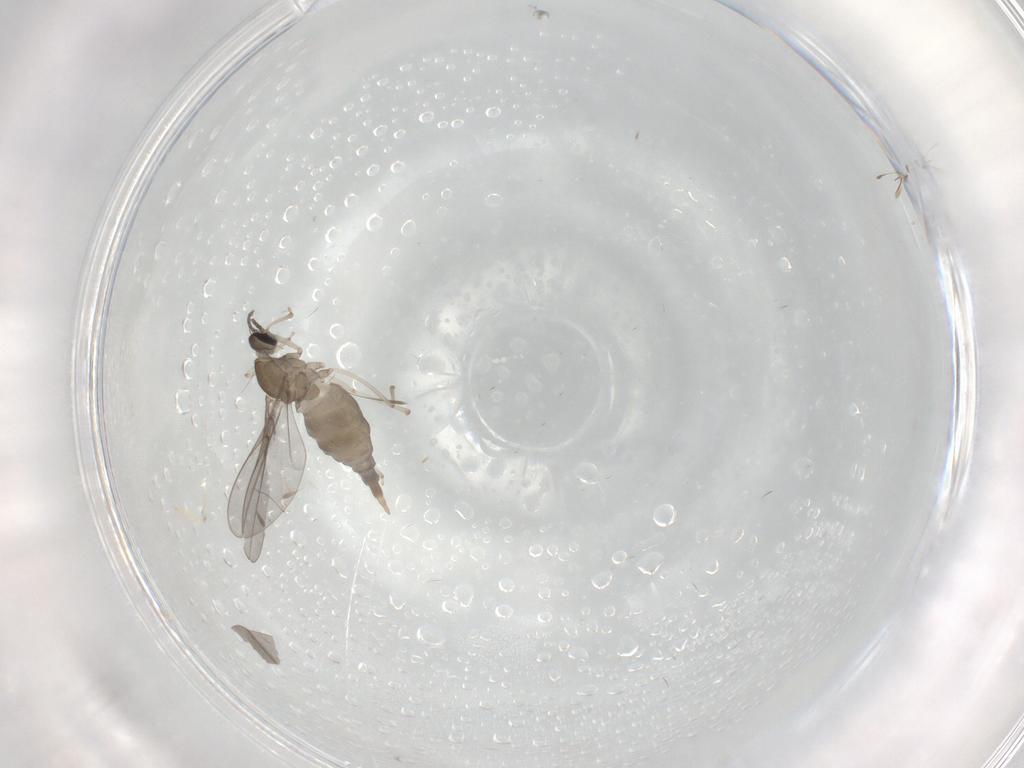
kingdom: Animalia
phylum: Arthropoda
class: Insecta
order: Diptera
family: Cecidomyiidae
